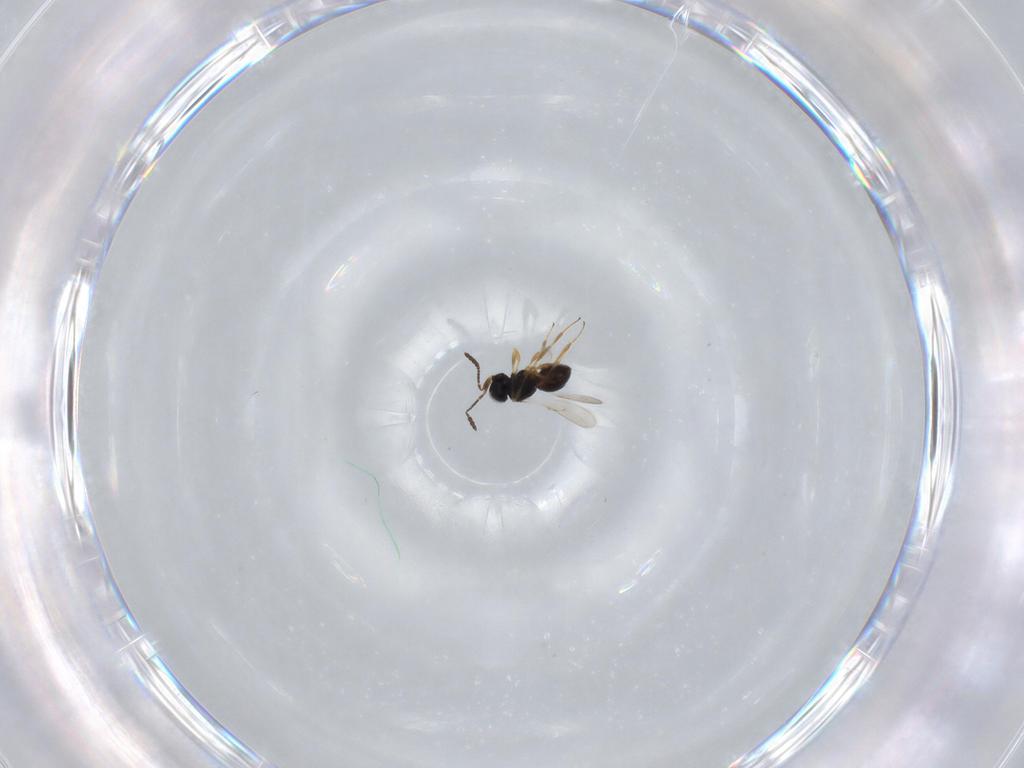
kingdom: Animalia
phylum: Arthropoda
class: Insecta
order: Hymenoptera
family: Scelionidae
